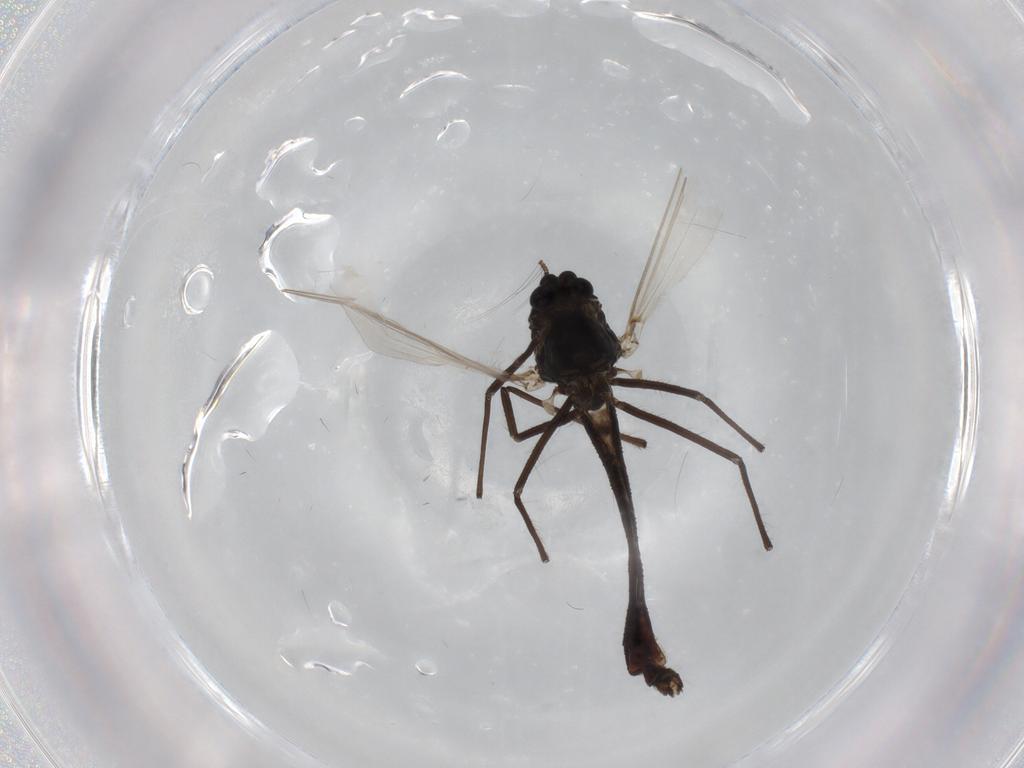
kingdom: Animalia
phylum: Arthropoda
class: Insecta
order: Diptera
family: Chironomidae
